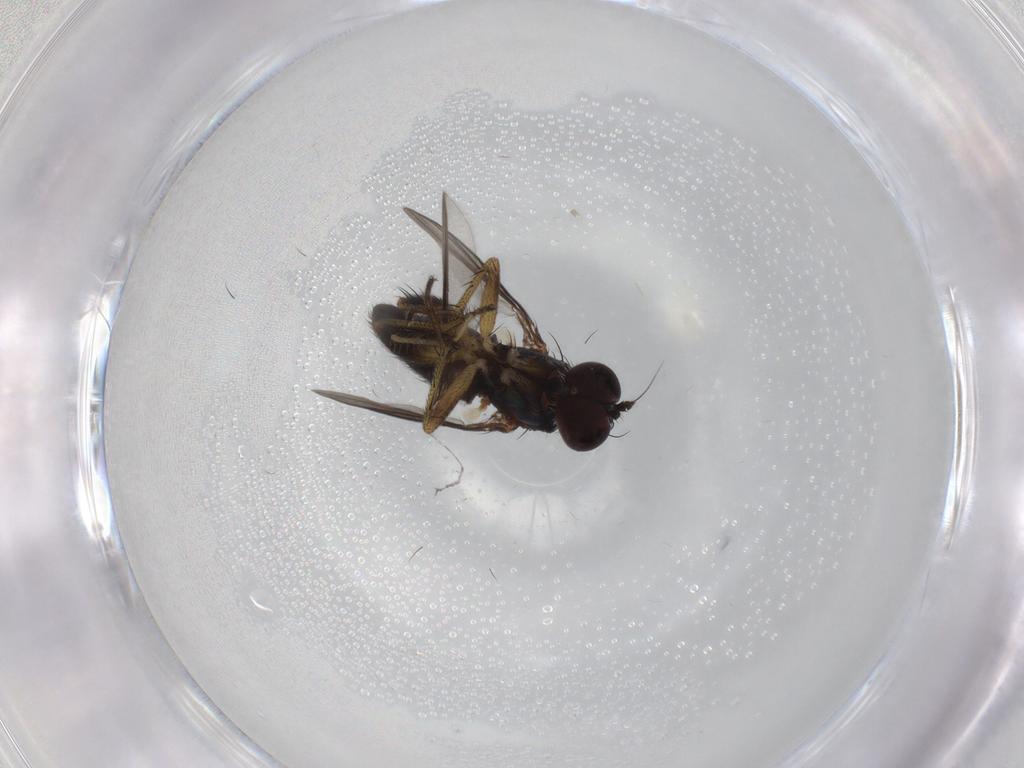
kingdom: Animalia
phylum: Arthropoda
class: Insecta
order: Diptera
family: Dolichopodidae
